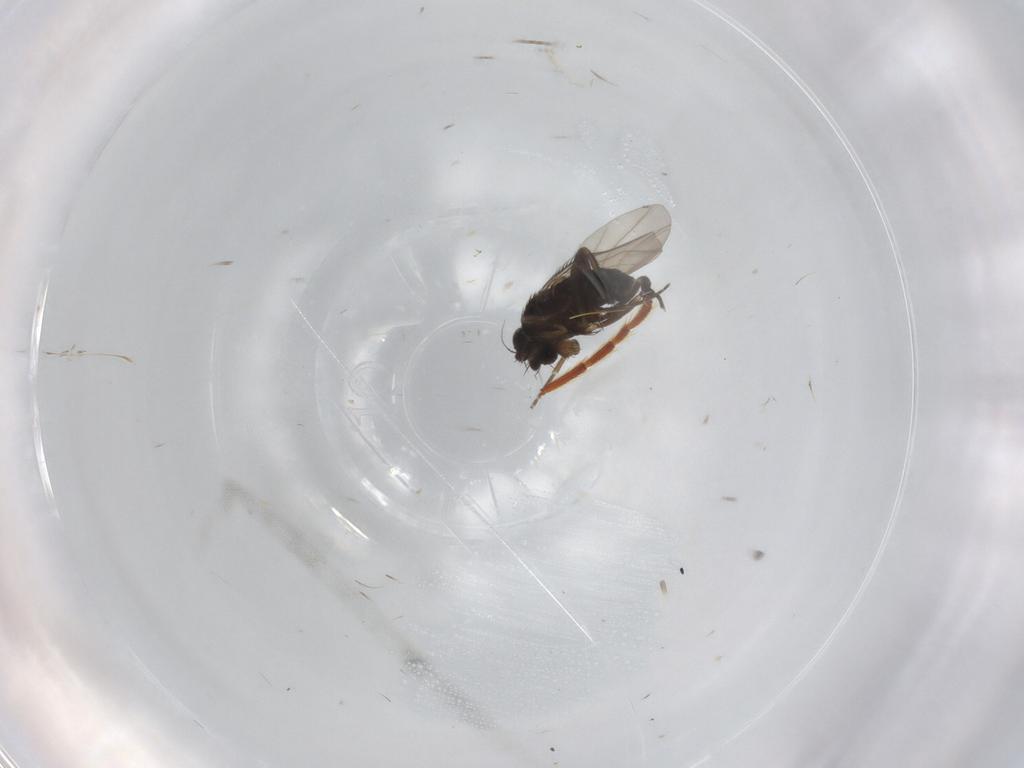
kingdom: Animalia
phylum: Arthropoda
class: Insecta
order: Diptera
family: Phoridae
